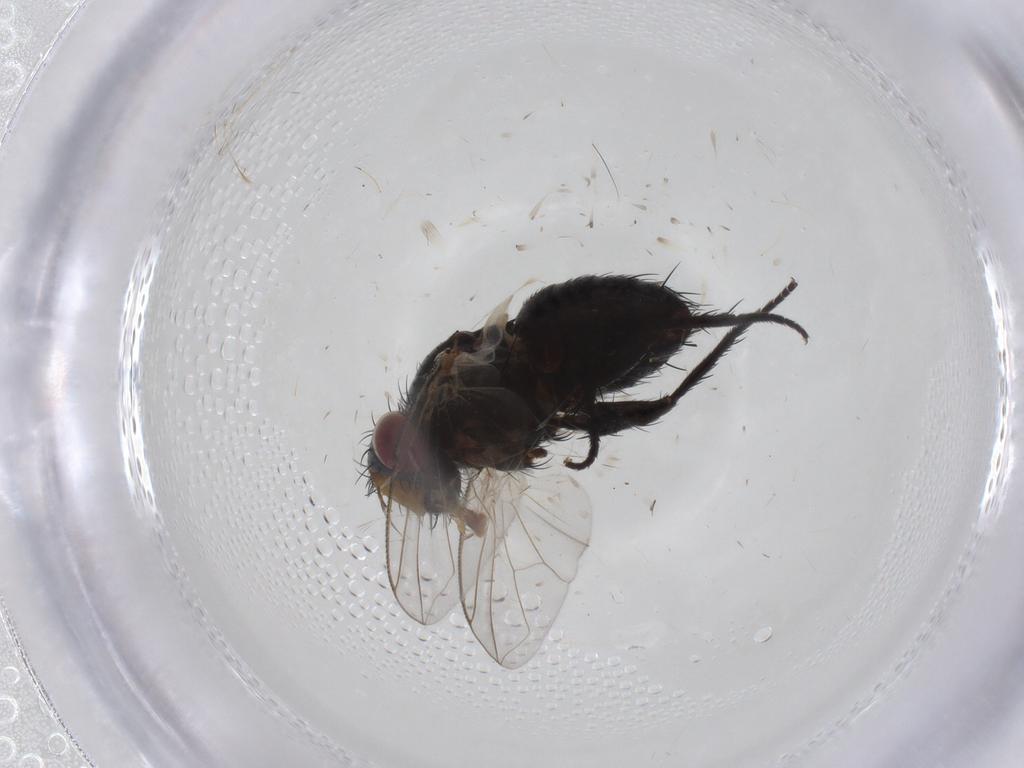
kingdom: Animalia
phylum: Arthropoda
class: Insecta
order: Diptera
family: Tachinidae
